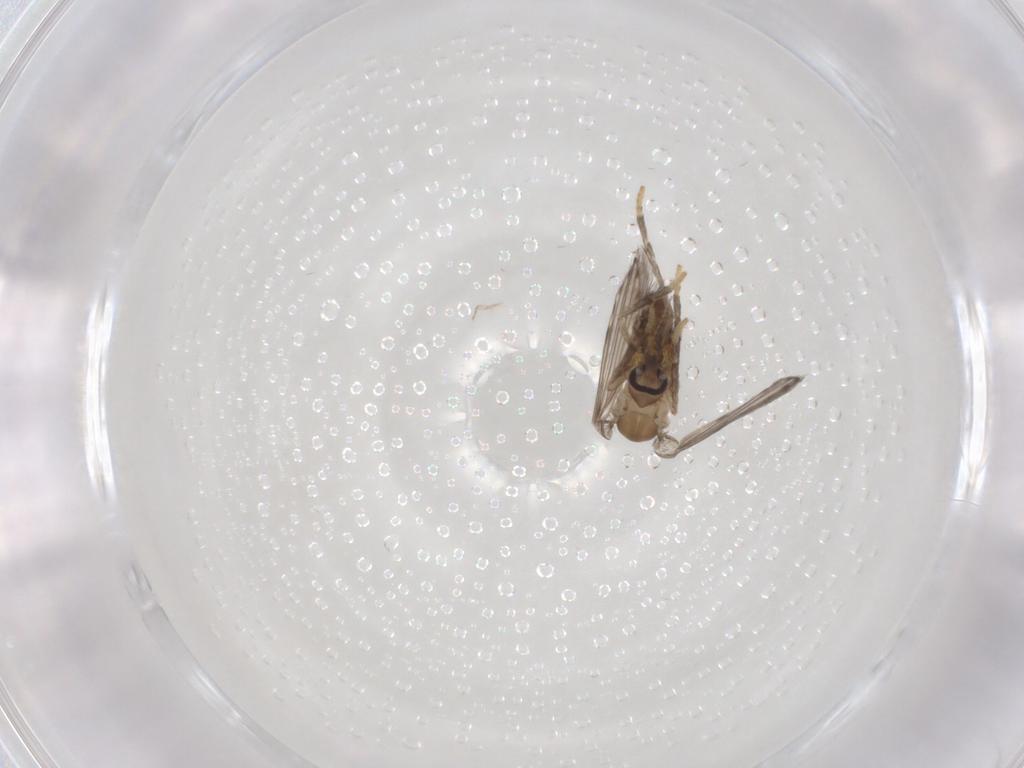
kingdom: Animalia
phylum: Arthropoda
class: Insecta
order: Diptera
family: Chironomidae
